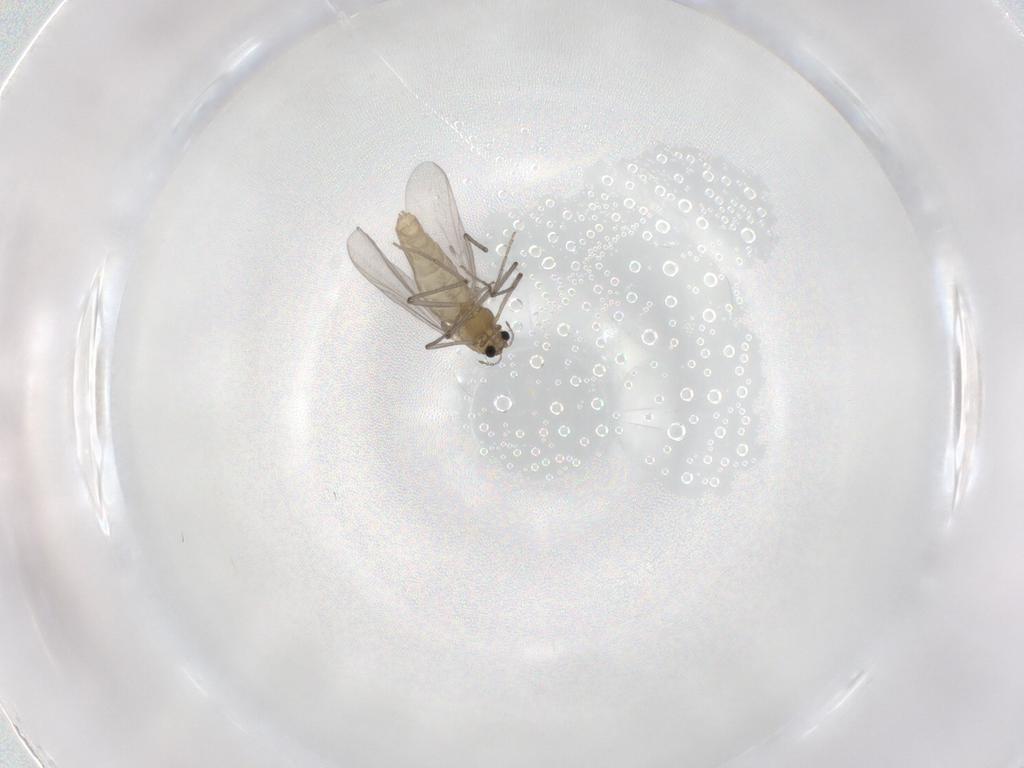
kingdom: Animalia
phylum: Arthropoda
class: Insecta
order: Diptera
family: Chironomidae
